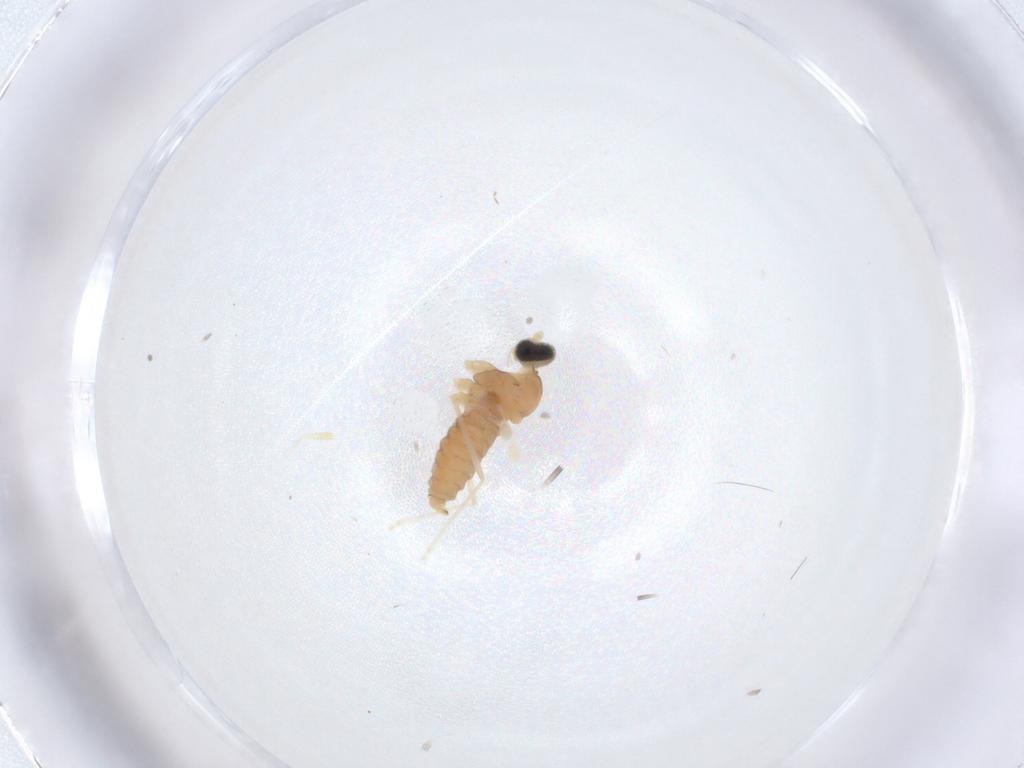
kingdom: Animalia
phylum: Arthropoda
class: Insecta
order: Diptera
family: Cecidomyiidae
